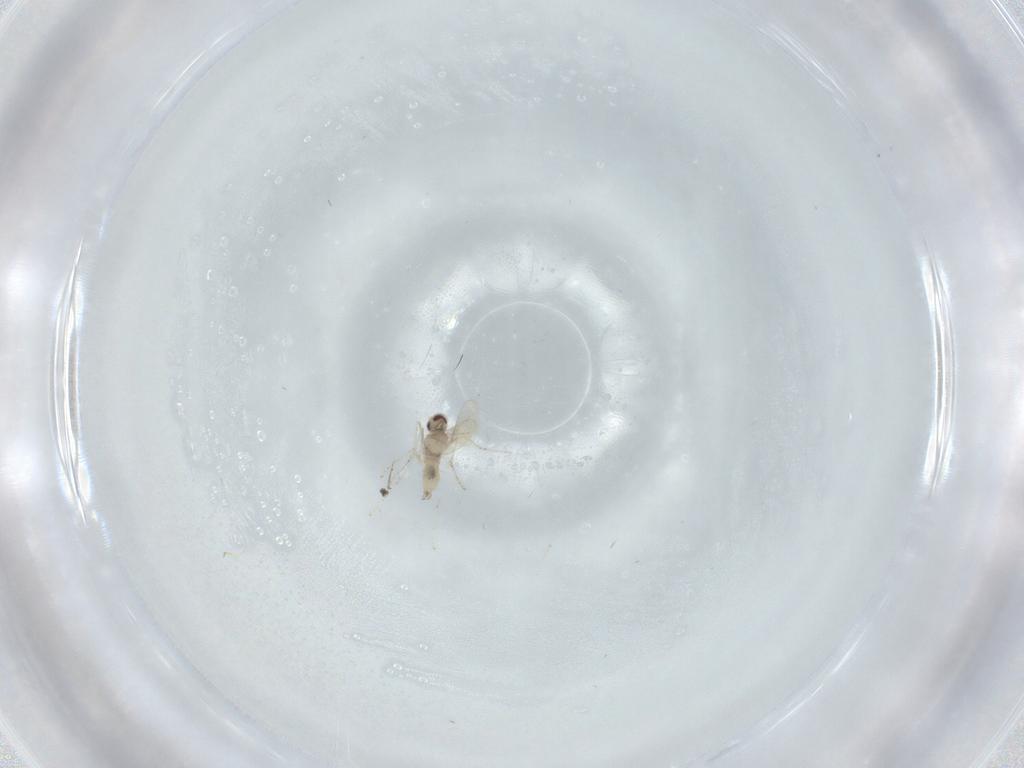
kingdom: Animalia
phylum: Arthropoda
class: Insecta
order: Diptera
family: Cecidomyiidae
